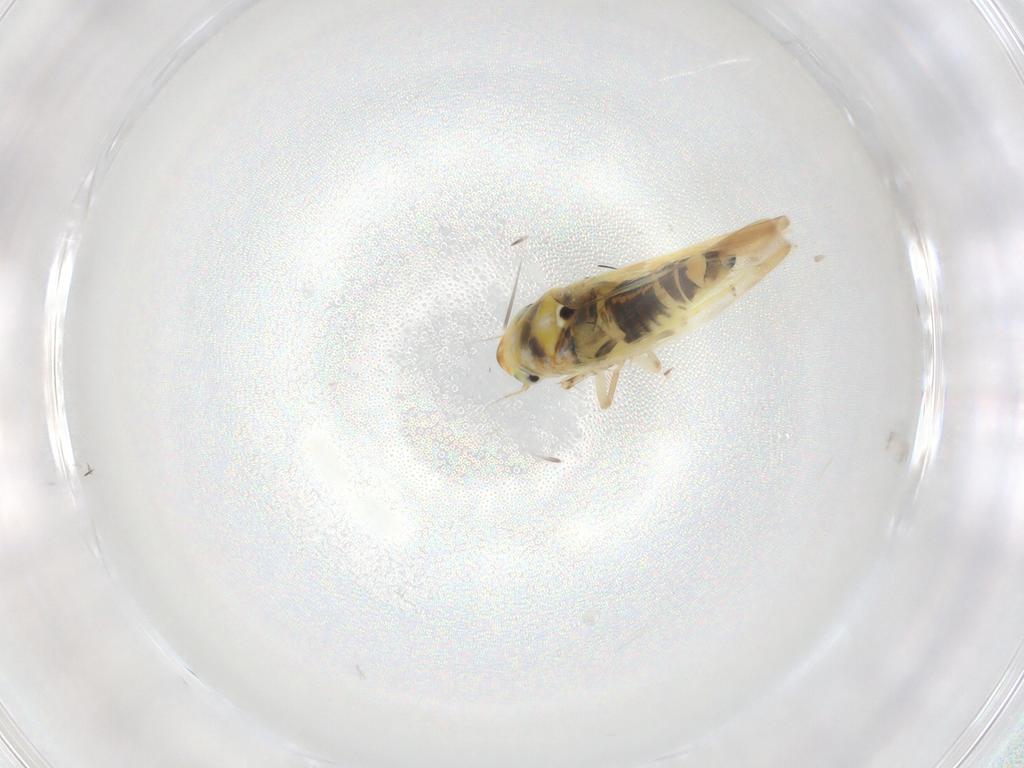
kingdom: Animalia
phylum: Arthropoda
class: Insecta
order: Hemiptera
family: Cicadellidae
